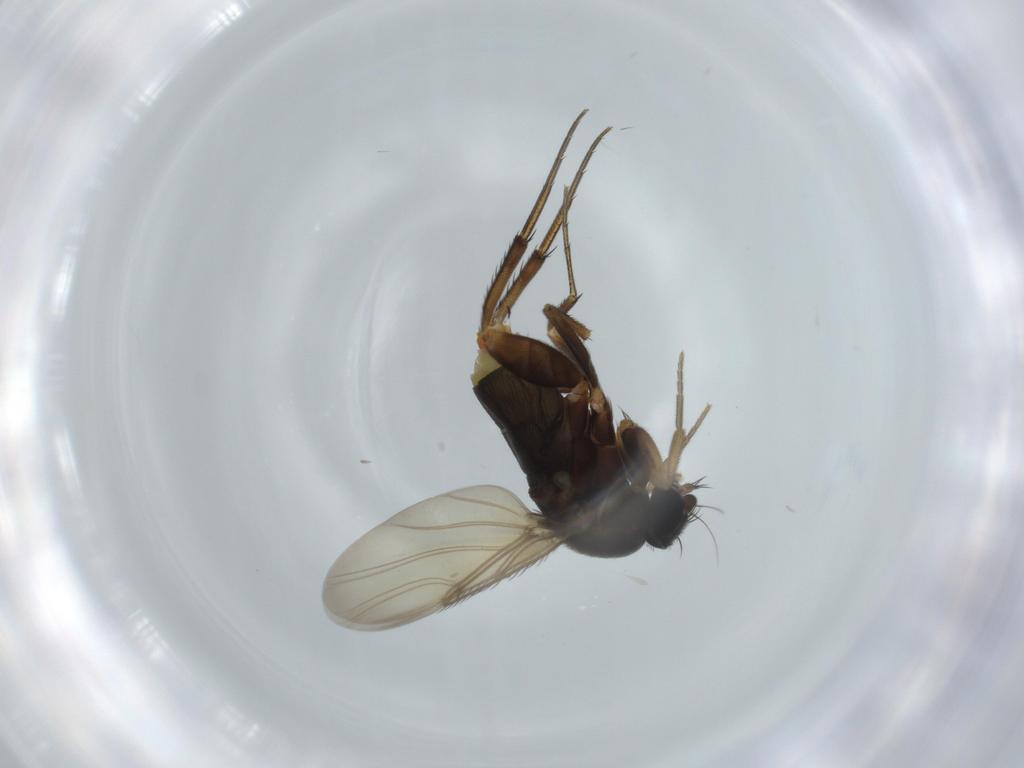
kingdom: Animalia
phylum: Arthropoda
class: Insecta
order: Diptera
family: Phoridae
